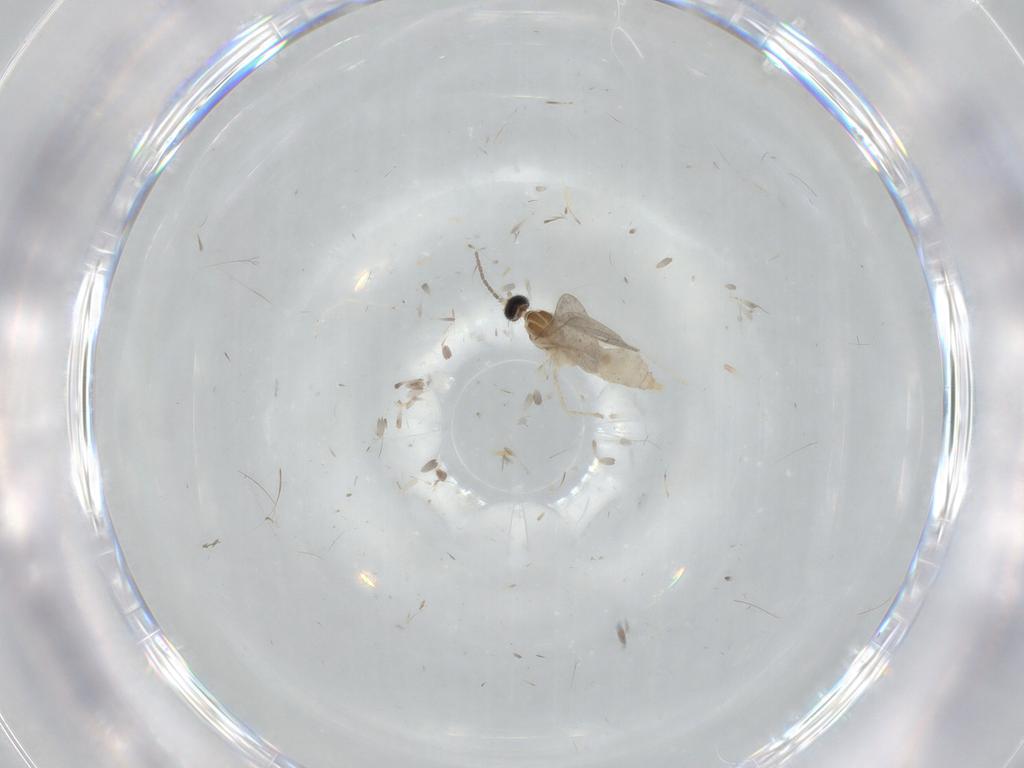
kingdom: Animalia
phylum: Arthropoda
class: Insecta
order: Diptera
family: Cecidomyiidae
